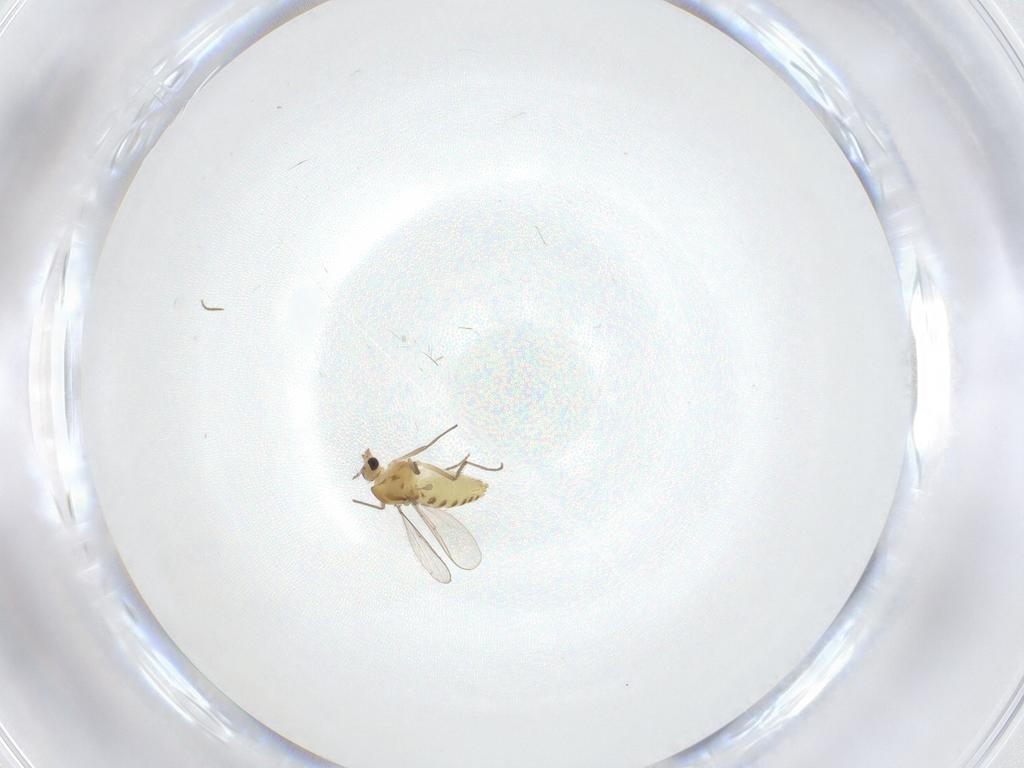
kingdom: Animalia
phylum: Arthropoda
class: Insecta
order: Diptera
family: Chironomidae
